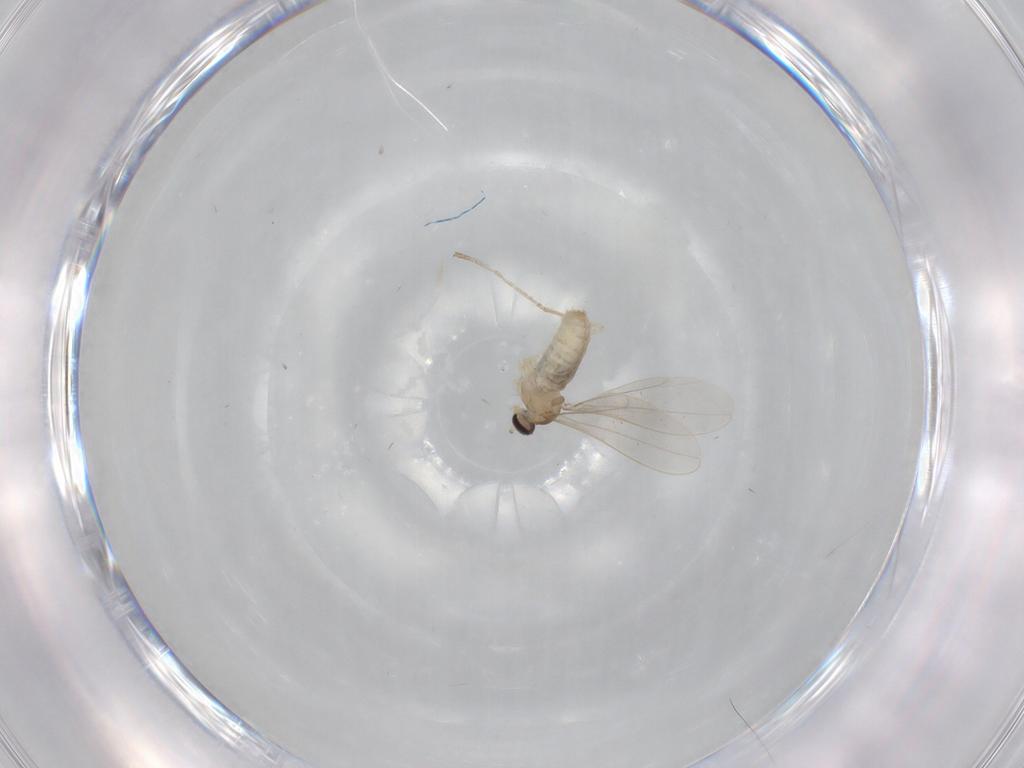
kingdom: Animalia
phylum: Arthropoda
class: Insecta
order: Diptera
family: Cecidomyiidae
